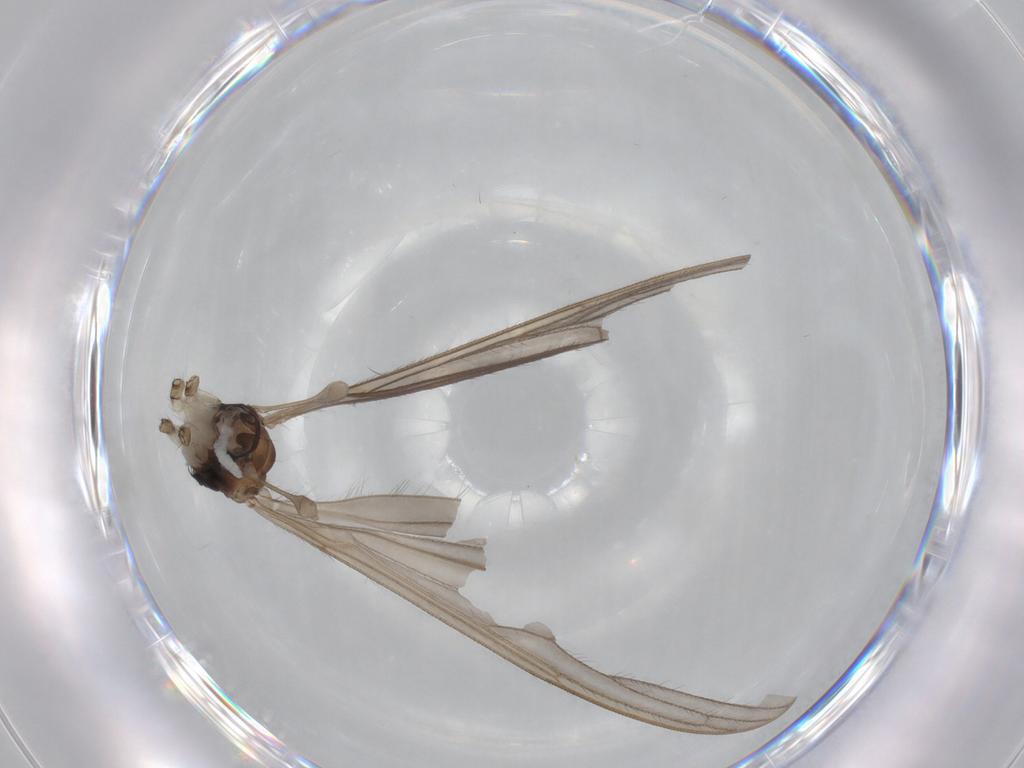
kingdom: Animalia
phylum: Arthropoda
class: Insecta
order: Diptera
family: Limoniidae
